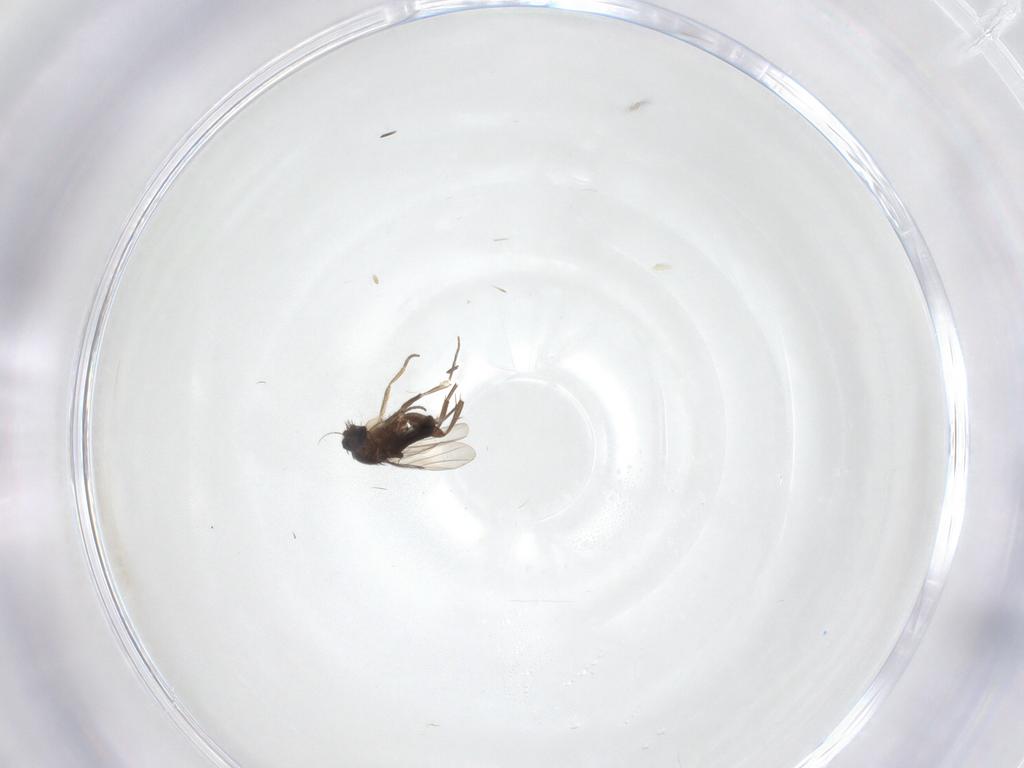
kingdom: Animalia
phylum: Arthropoda
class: Insecta
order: Diptera
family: Phoridae
